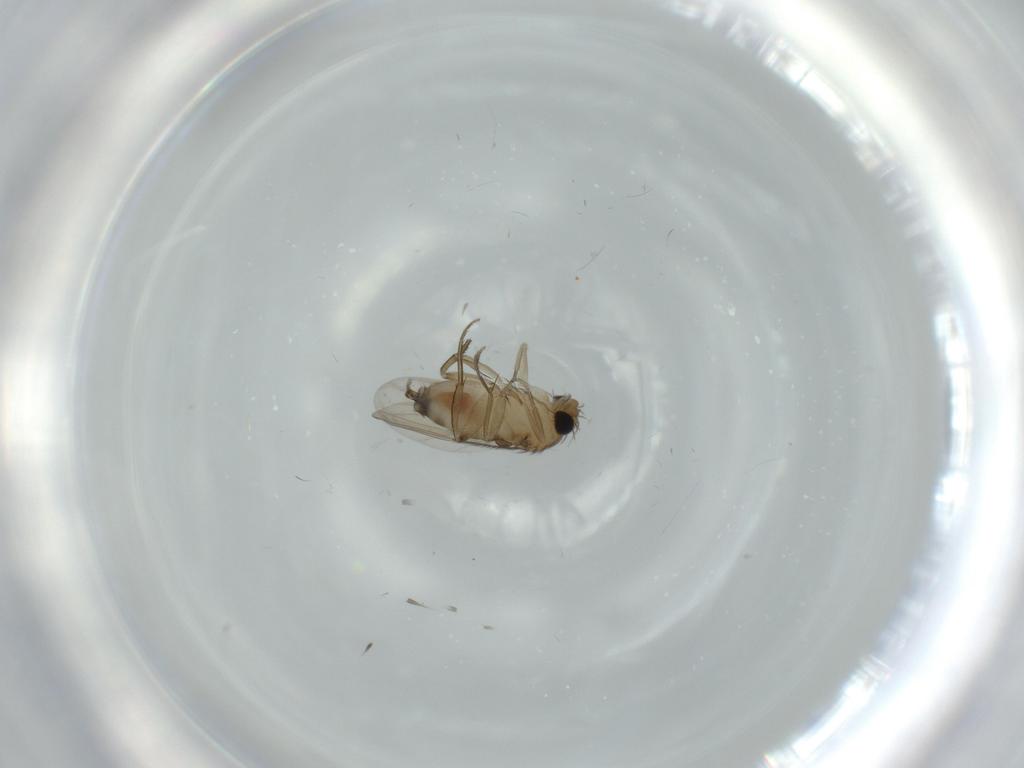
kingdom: Animalia
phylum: Arthropoda
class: Insecta
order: Diptera
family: Phoridae
